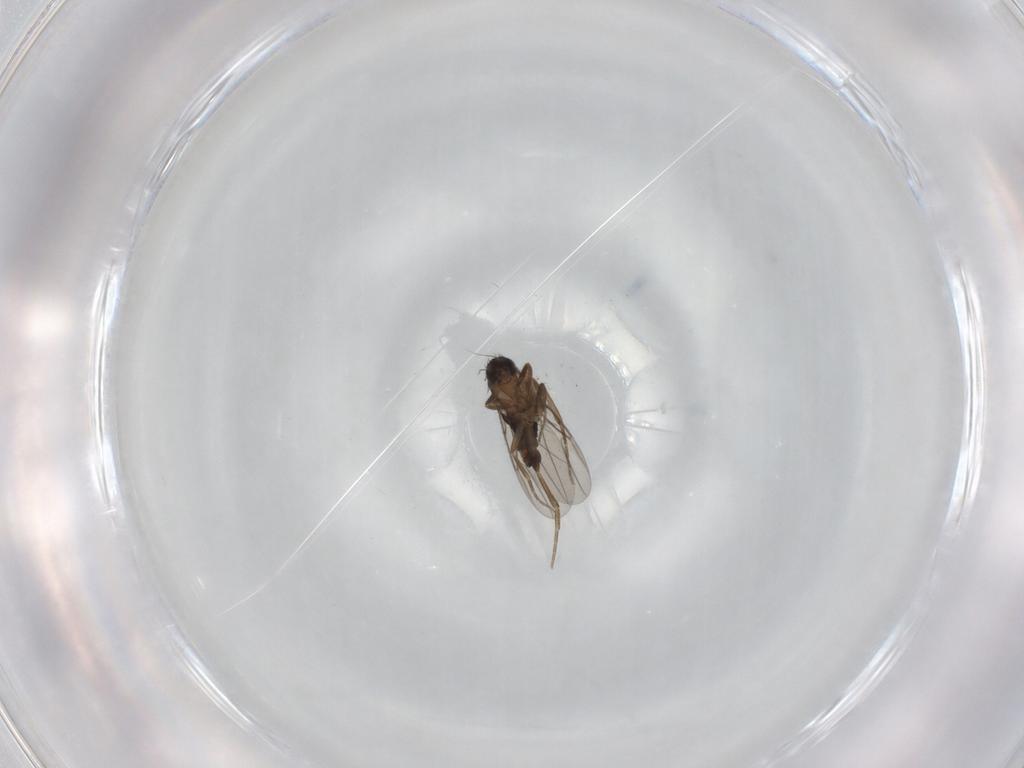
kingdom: Animalia
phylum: Arthropoda
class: Insecta
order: Diptera
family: Phoridae
